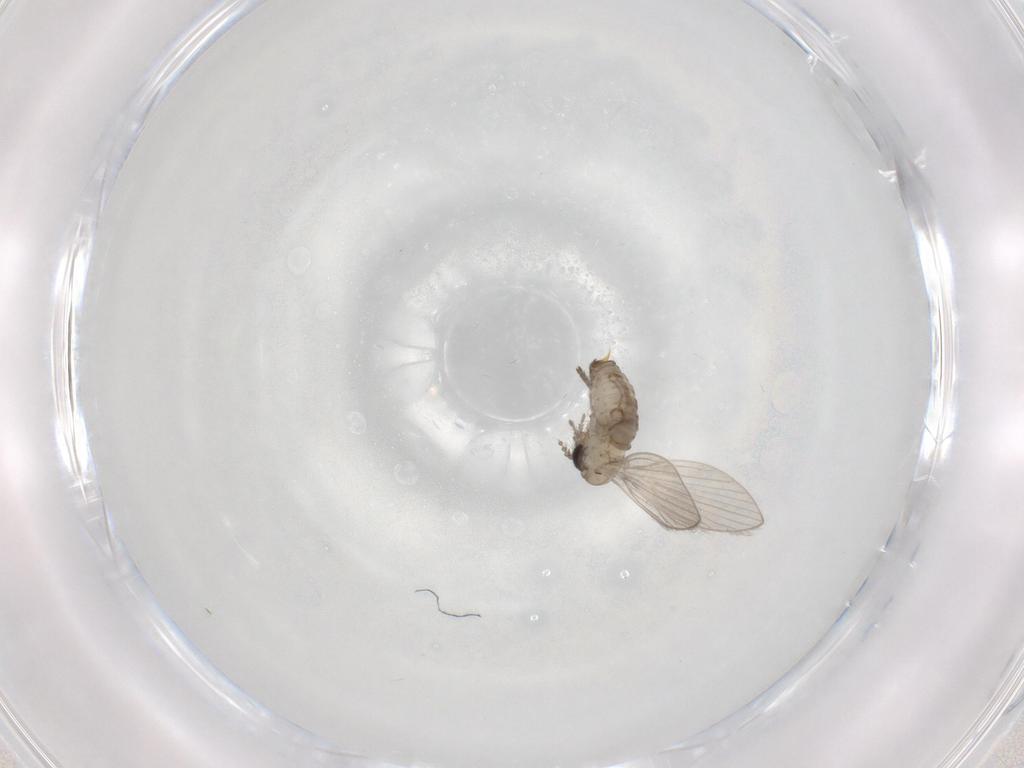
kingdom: Animalia
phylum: Arthropoda
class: Insecta
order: Diptera
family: Psychodidae
